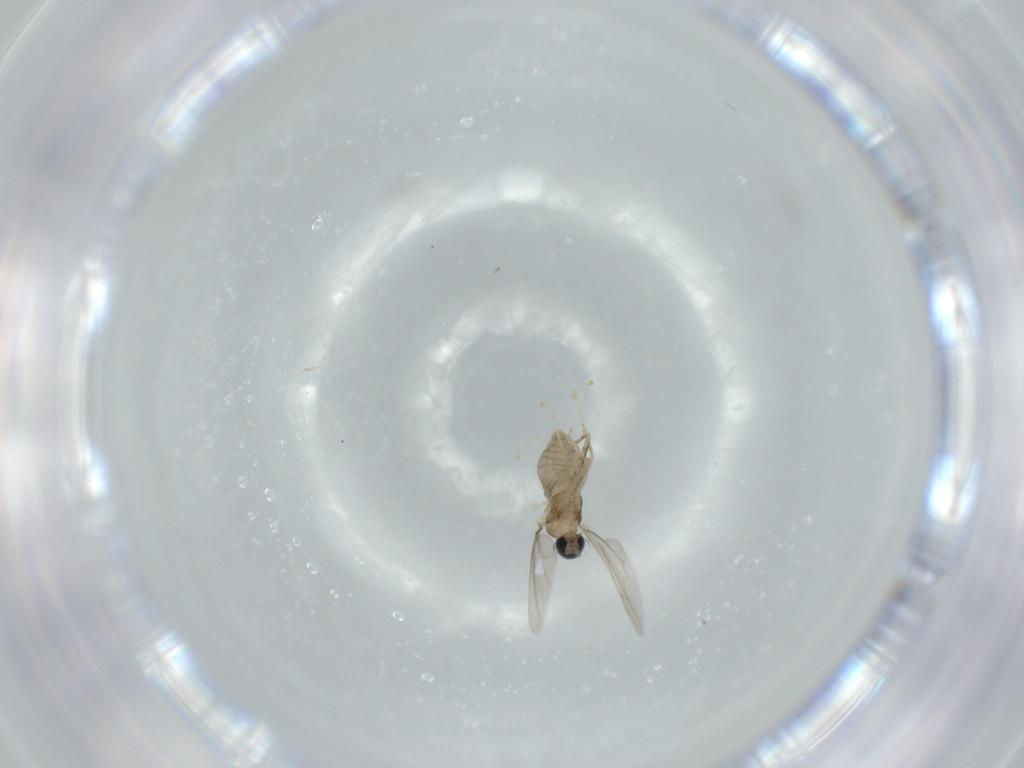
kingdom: Animalia
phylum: Arthropoda
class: Insecta
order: Diptera
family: Cecidomyiidae
